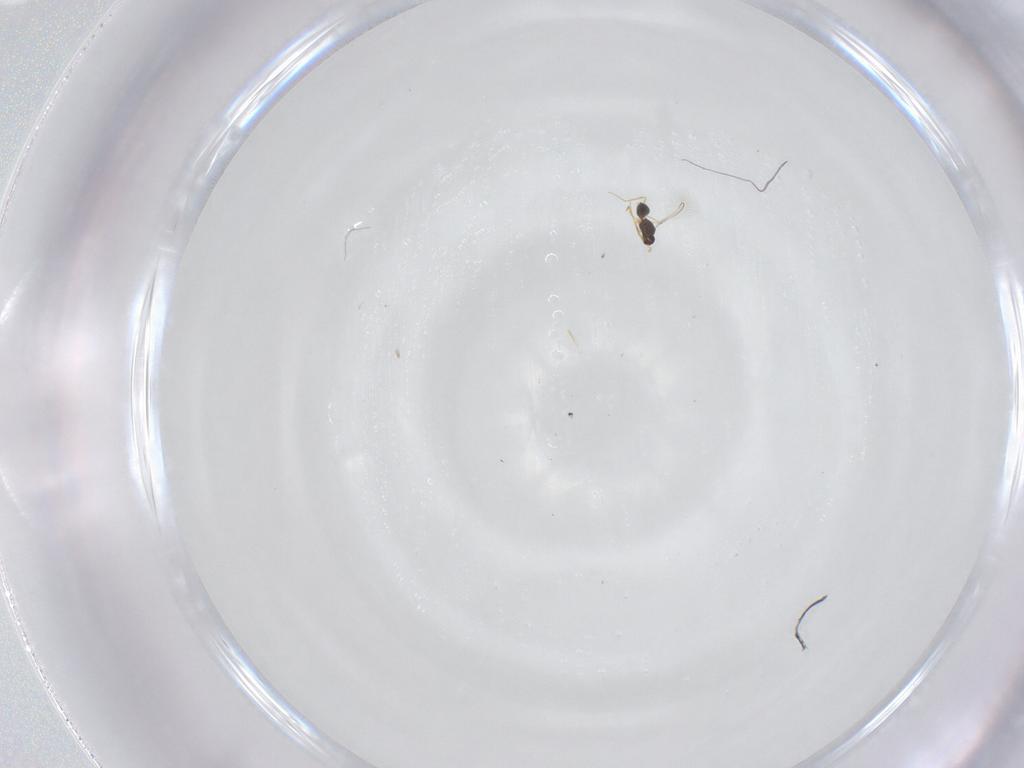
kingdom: Animalia
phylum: Arthropoda
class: Insecta
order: Hymenoptera
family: Mymaridae
